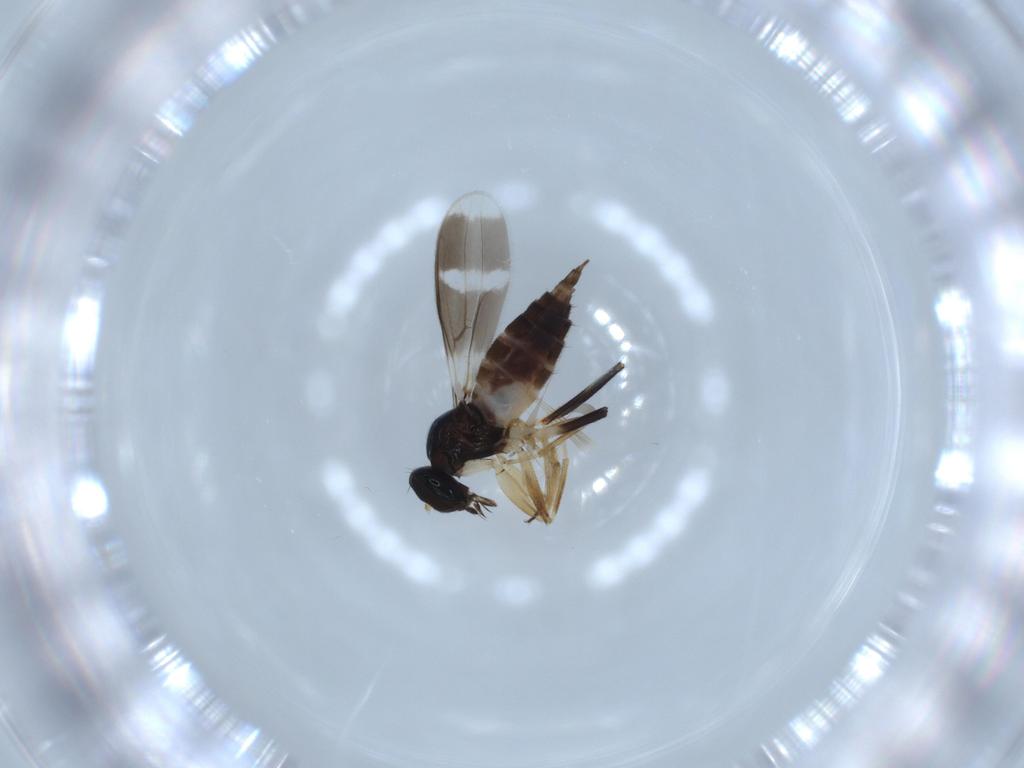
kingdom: Animalia
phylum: Arthropoda
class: Insecta
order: Diptera
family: Hybotidae
